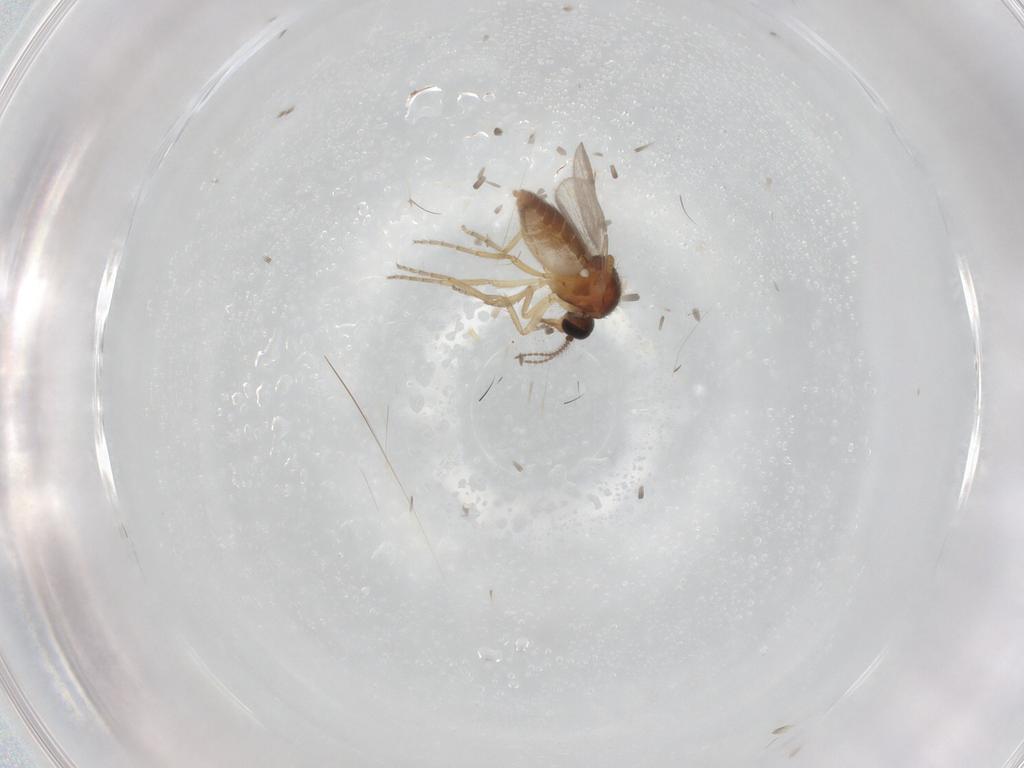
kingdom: Animalia
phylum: Arthropoda
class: Insecta
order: Diptera
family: Ceratopogonidae
